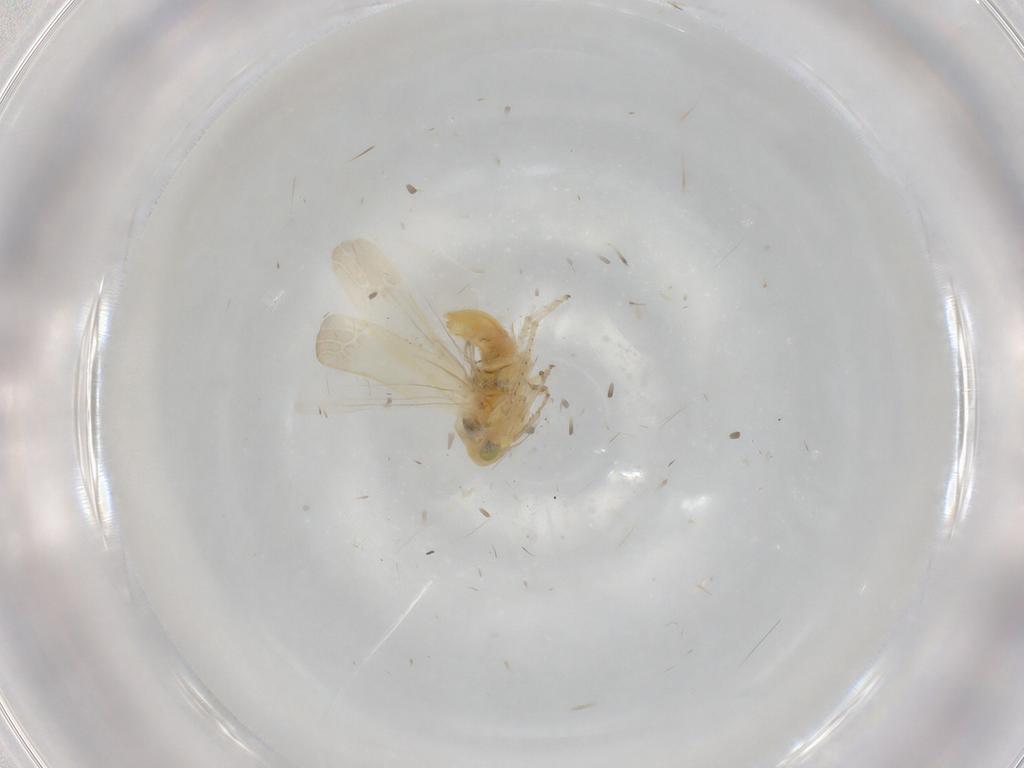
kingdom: Animalia
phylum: Arthropoda
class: Insecta
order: Hemiptera
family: Cicadellidae
